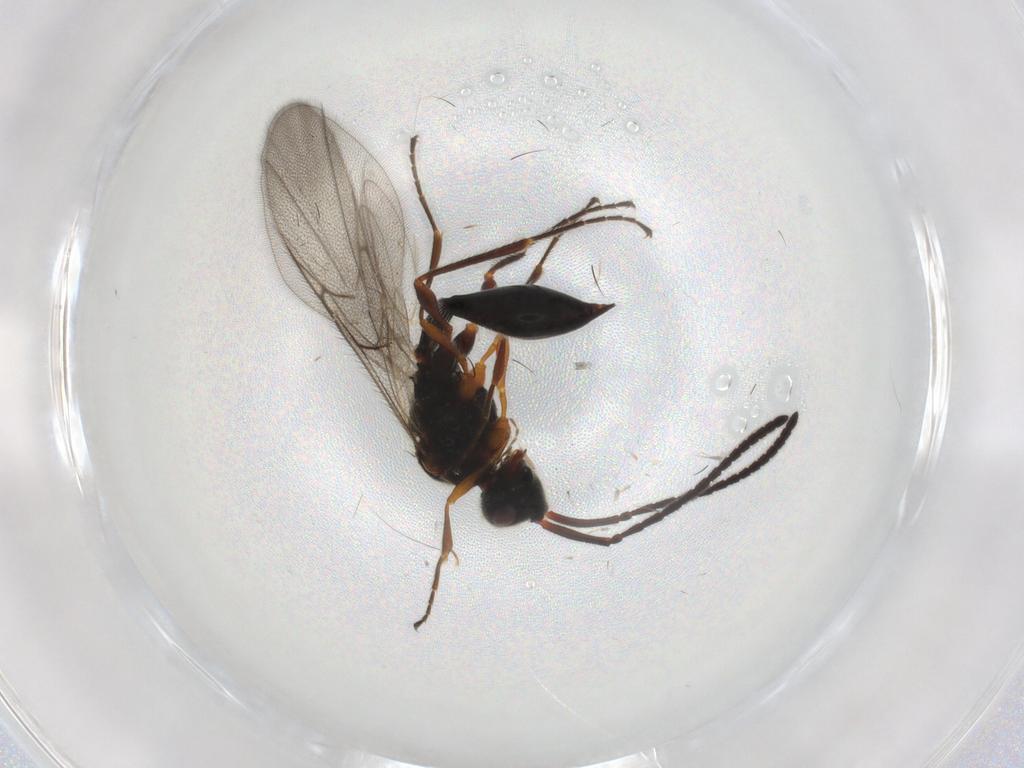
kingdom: Animalia
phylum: Arthropoda
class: Insecta
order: Hymenoptera
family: Diapriidae
